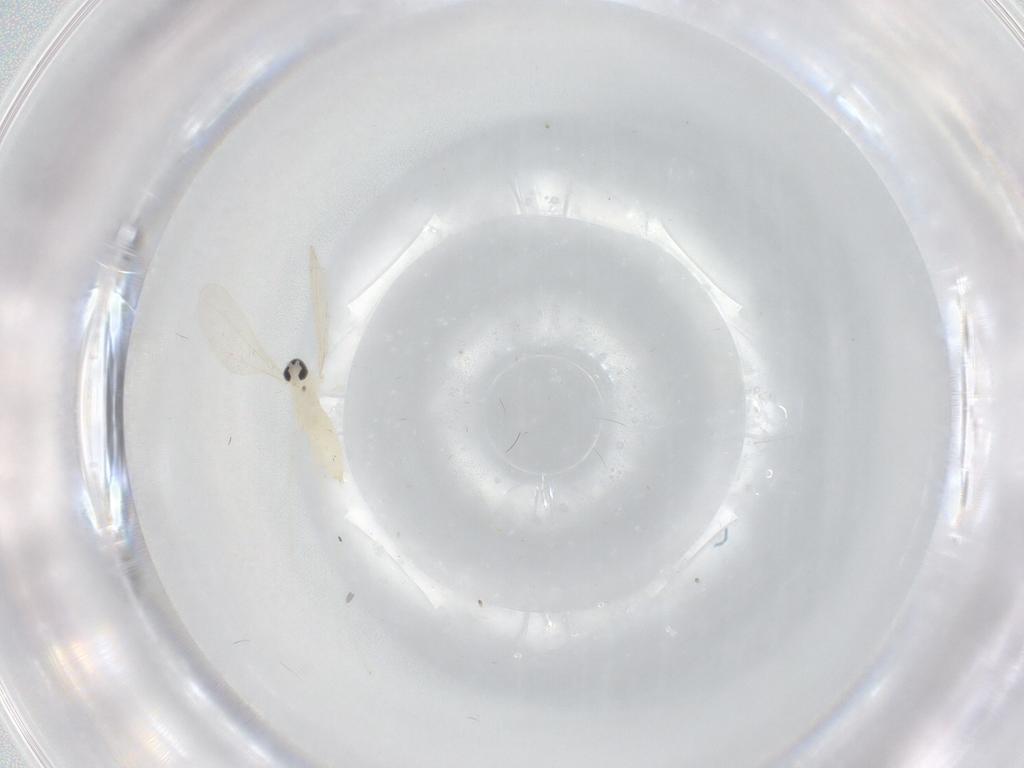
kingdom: Animalia
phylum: Arthropoda
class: Insecta
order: Diptera
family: Cecidomyiidae
